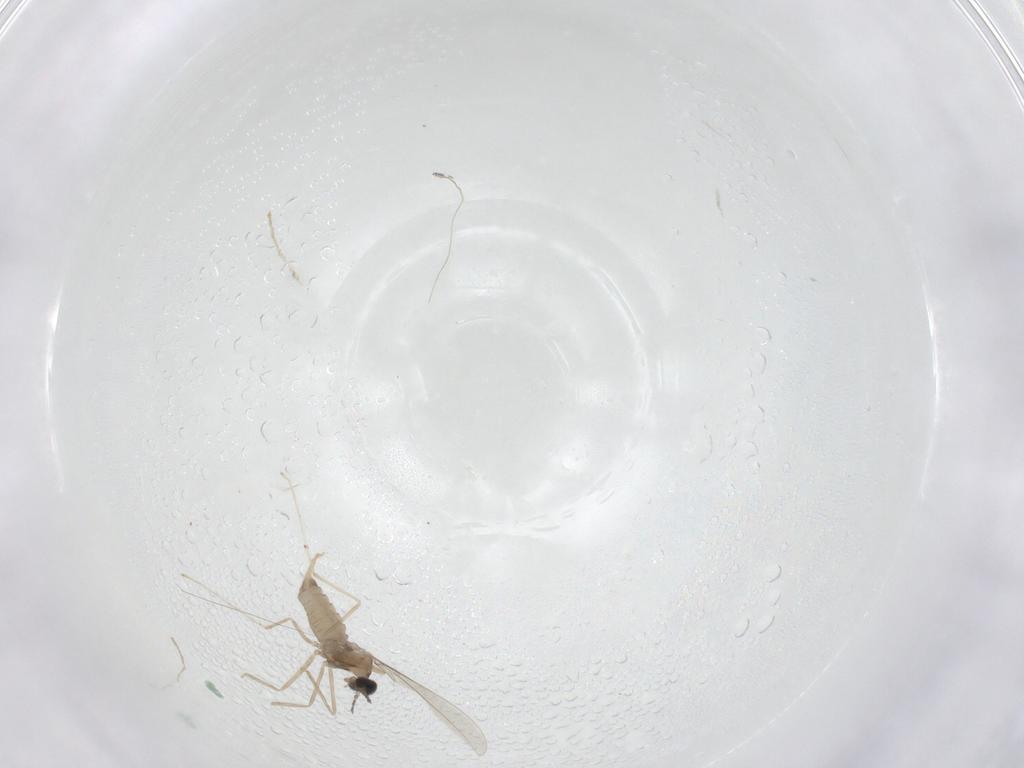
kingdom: Animalia
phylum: Arthropoda
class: Insecta
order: Diptera
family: Cecidomyiidae
